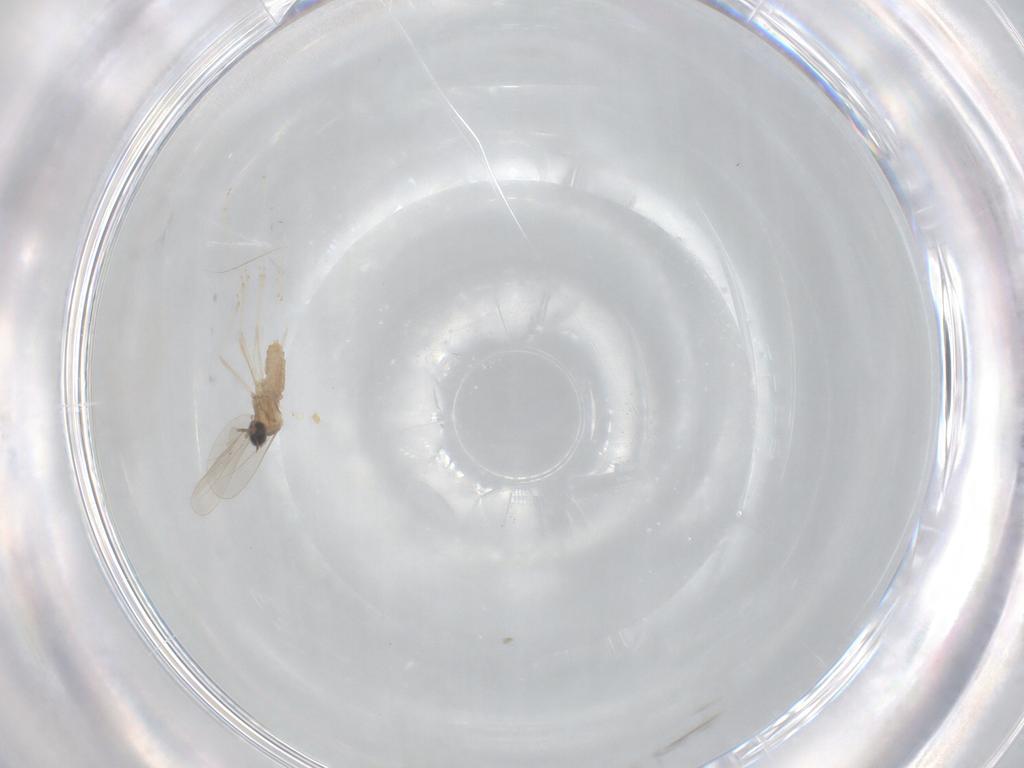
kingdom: Animalia
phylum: Arthropoda
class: Insecta
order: Diptera
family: Cecidomyiidae
